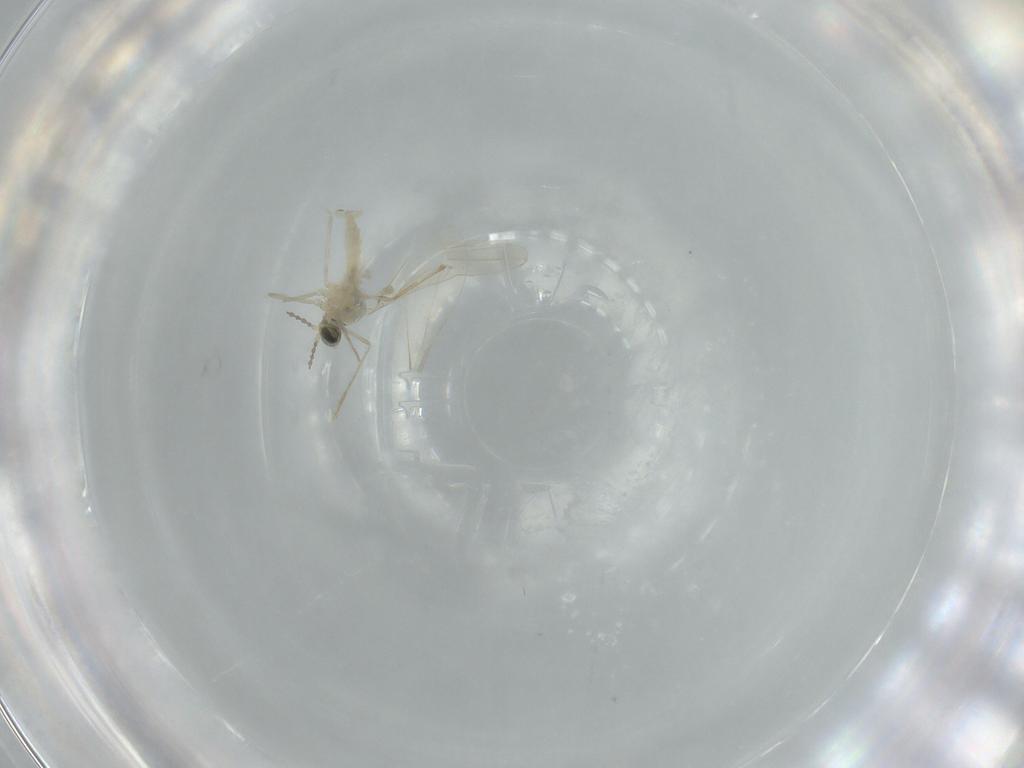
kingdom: Animalia
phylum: Arthropoda
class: Insecta
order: Diptera
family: Cecidomyiidae
